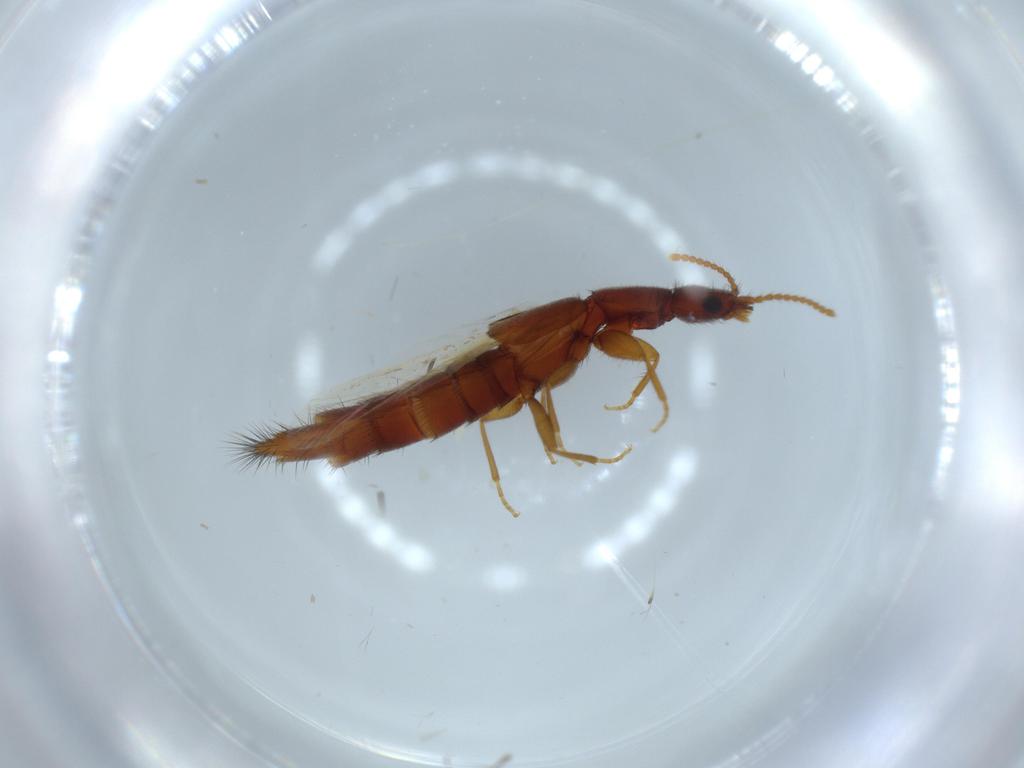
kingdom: Animalia
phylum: Arthropoda
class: Insecta
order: Coleoptera
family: Staphylinidae
